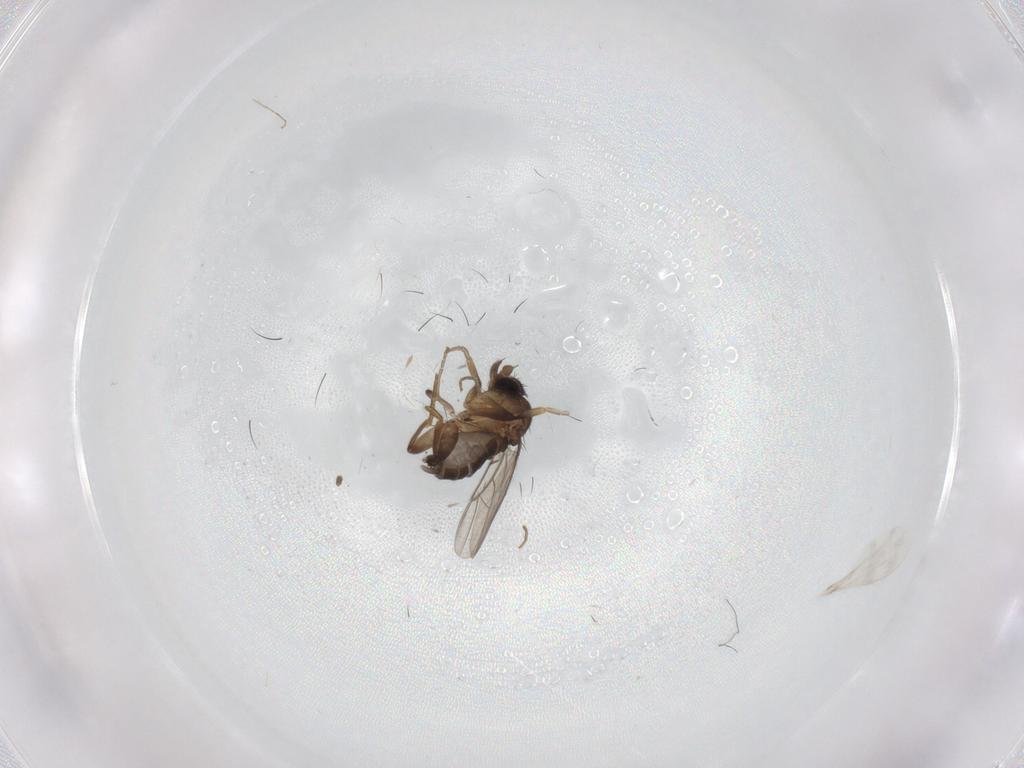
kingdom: Animalia
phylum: Arthropoda
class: Insecta
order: Diptera
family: Phoridae
